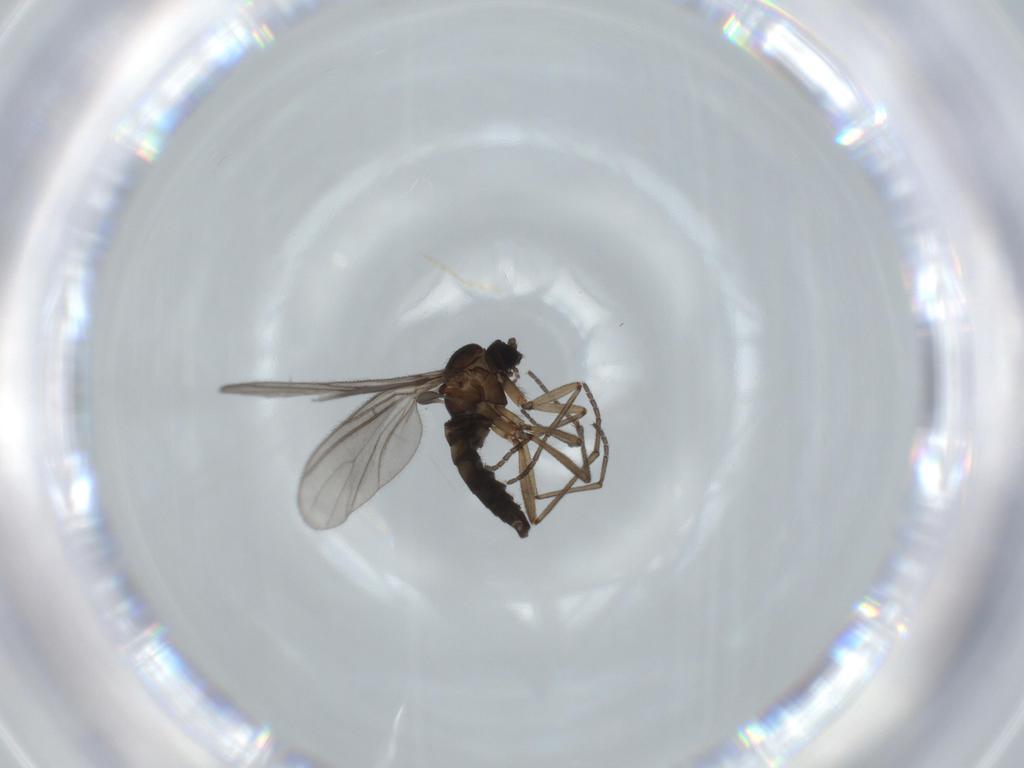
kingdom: Animalia
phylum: Arthropoda
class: Insecta
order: Diptera
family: Sciaridae
